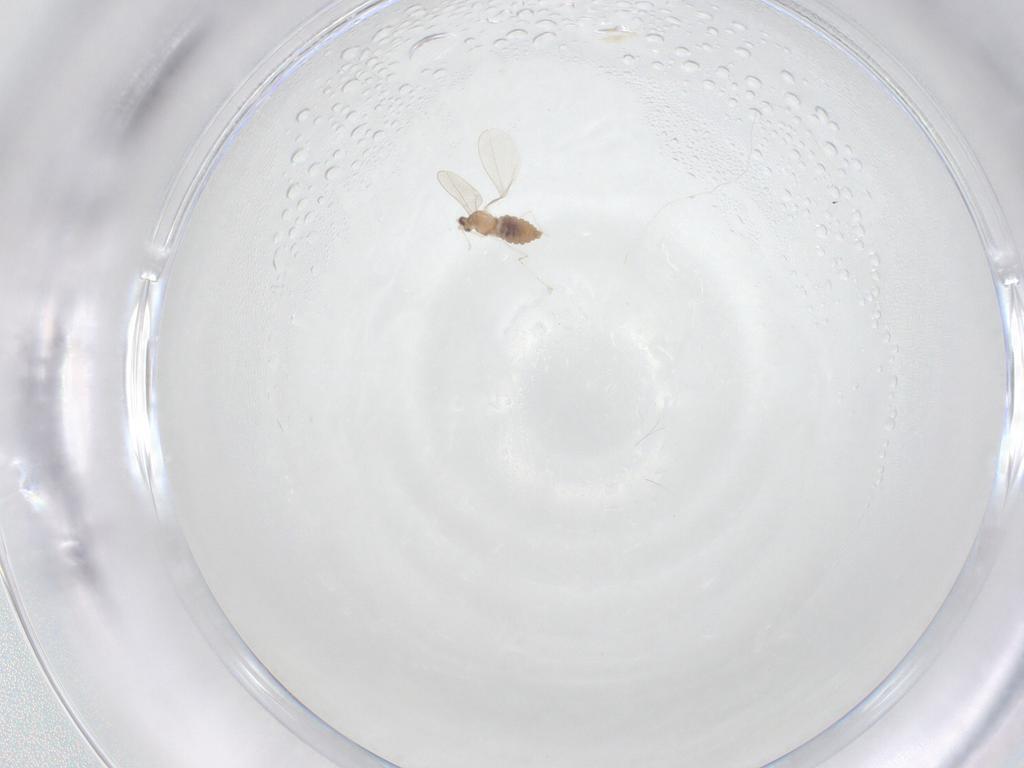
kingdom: Animalia
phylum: Arthropoda
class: Insecta
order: Diptera
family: Cecidomyiidae
